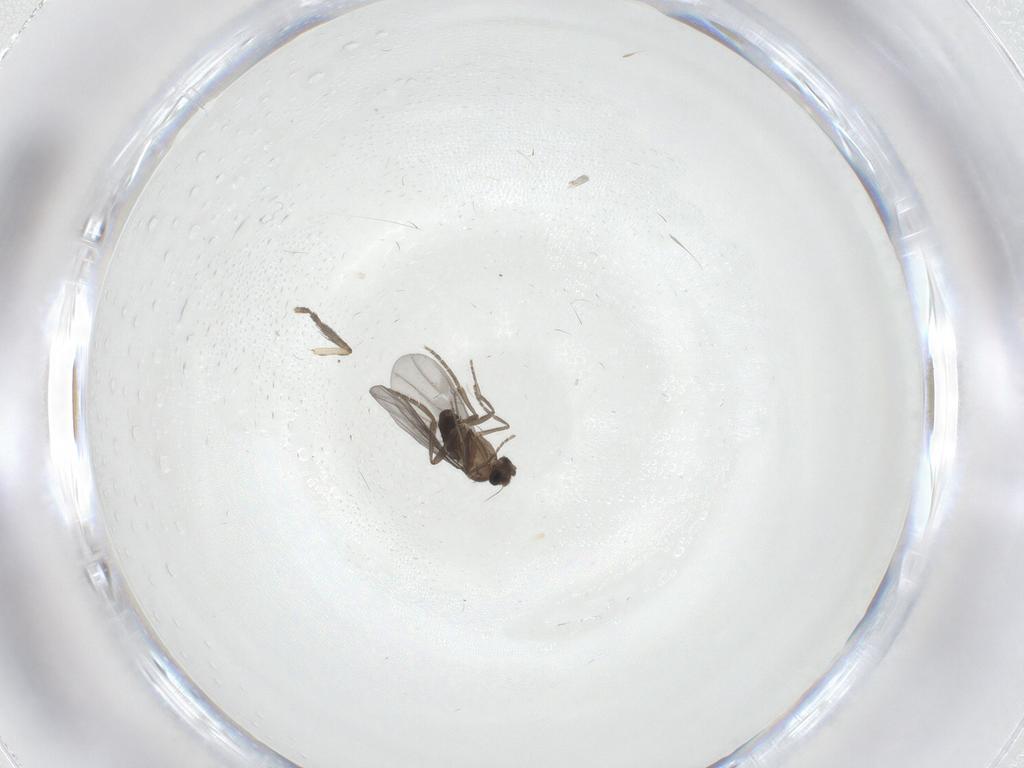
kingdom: Animalia
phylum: Arthropoda
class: Insecta
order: Diptera
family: Psychodidae
